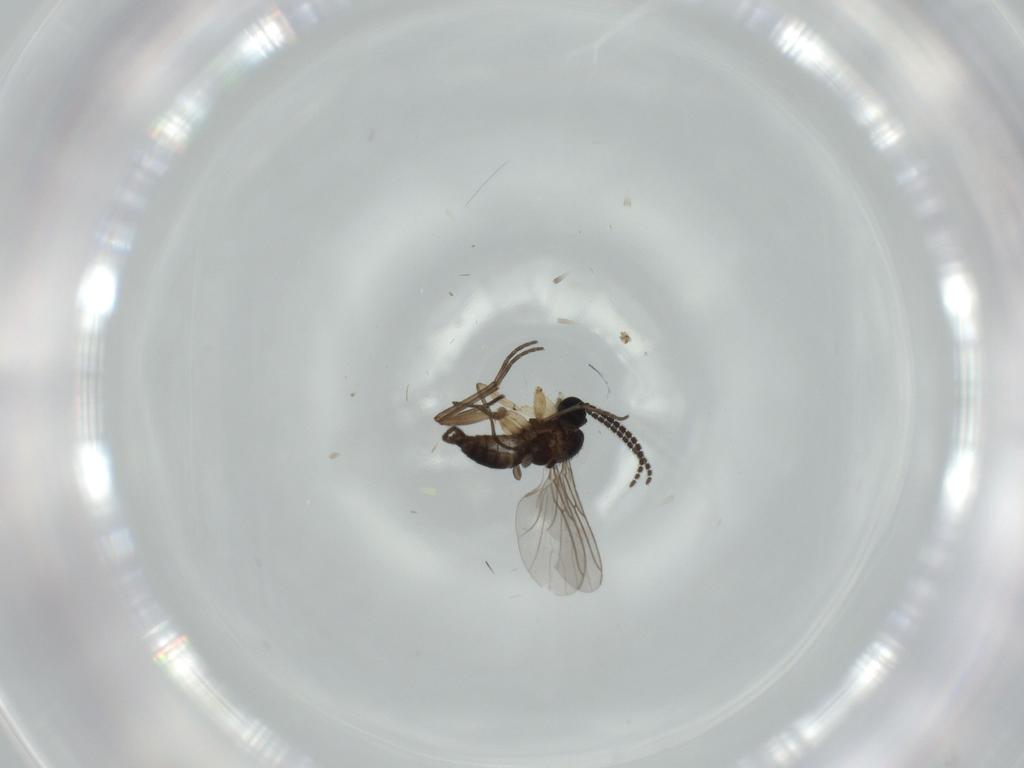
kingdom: Animalia
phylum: Arthropoda
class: Insecta
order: Diptera
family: Sciaridae
